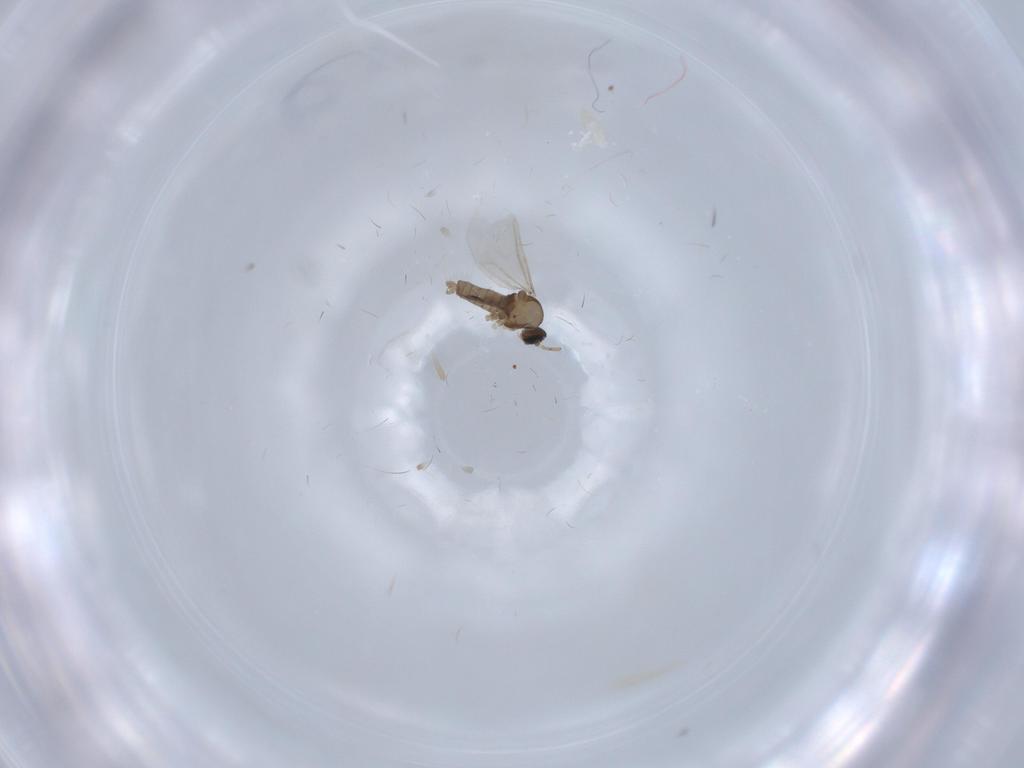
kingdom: Animalia
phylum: Arthropoda
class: Insecta
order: Diptera
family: Cecidomyiidae
